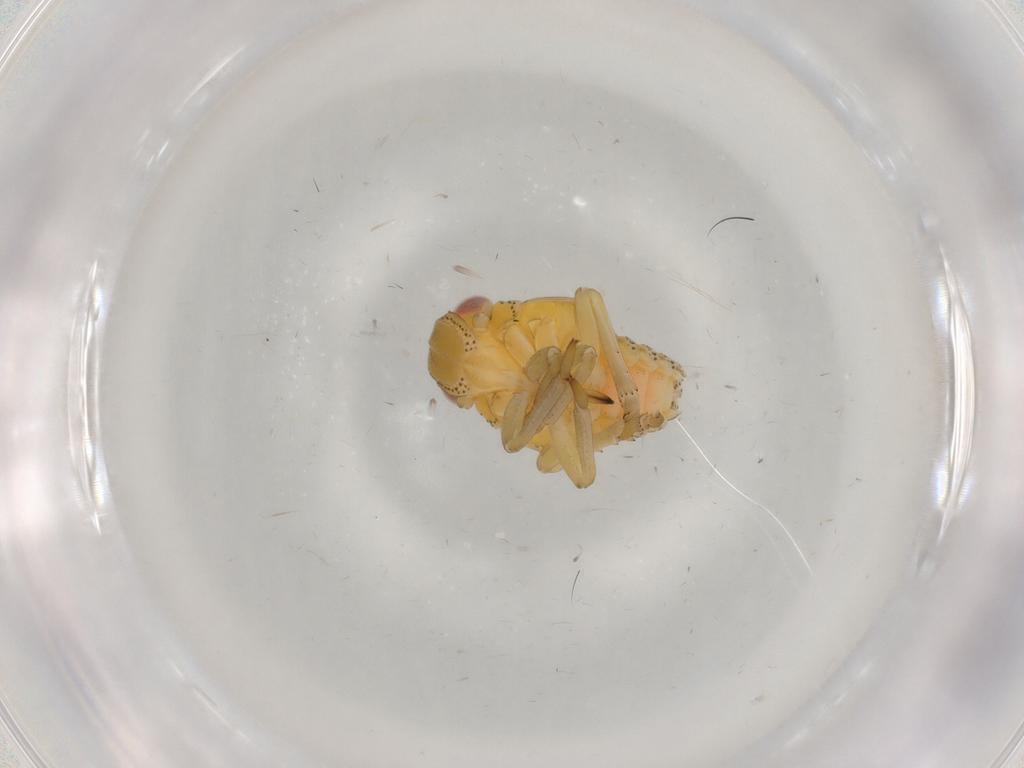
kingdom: Animalia
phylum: Arthropoda
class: Insecta
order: Hemiptera
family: Tropiduchidae
